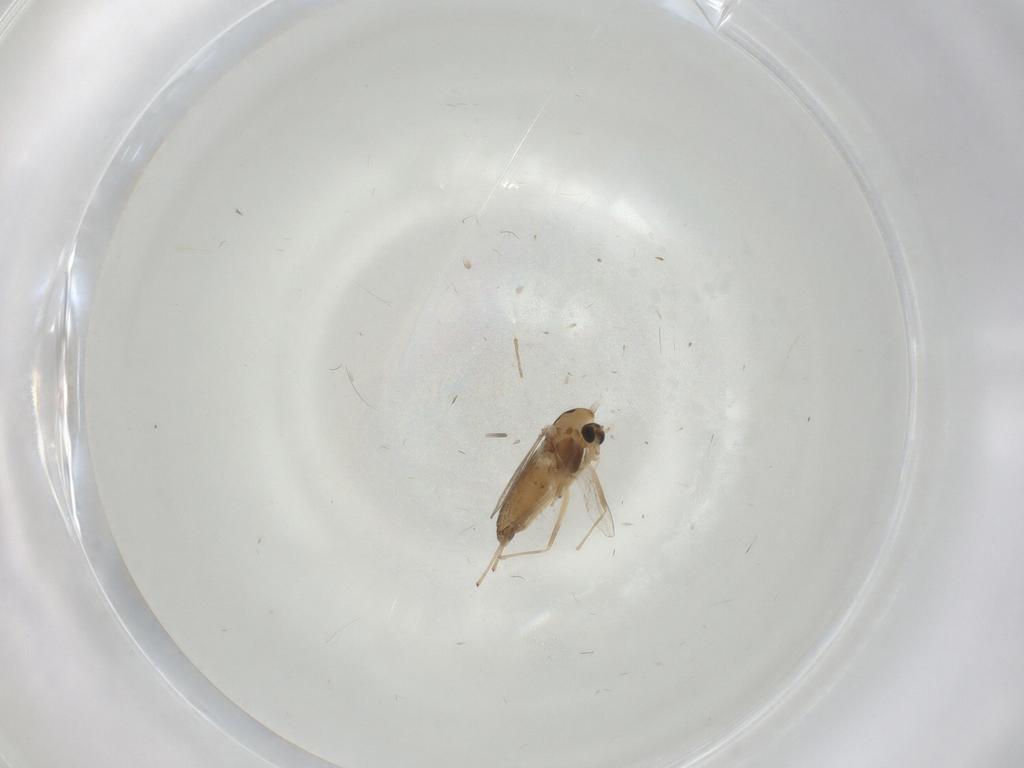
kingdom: Animalia
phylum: Arthropoda
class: Insecta
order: Diptera
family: Chironomidae
